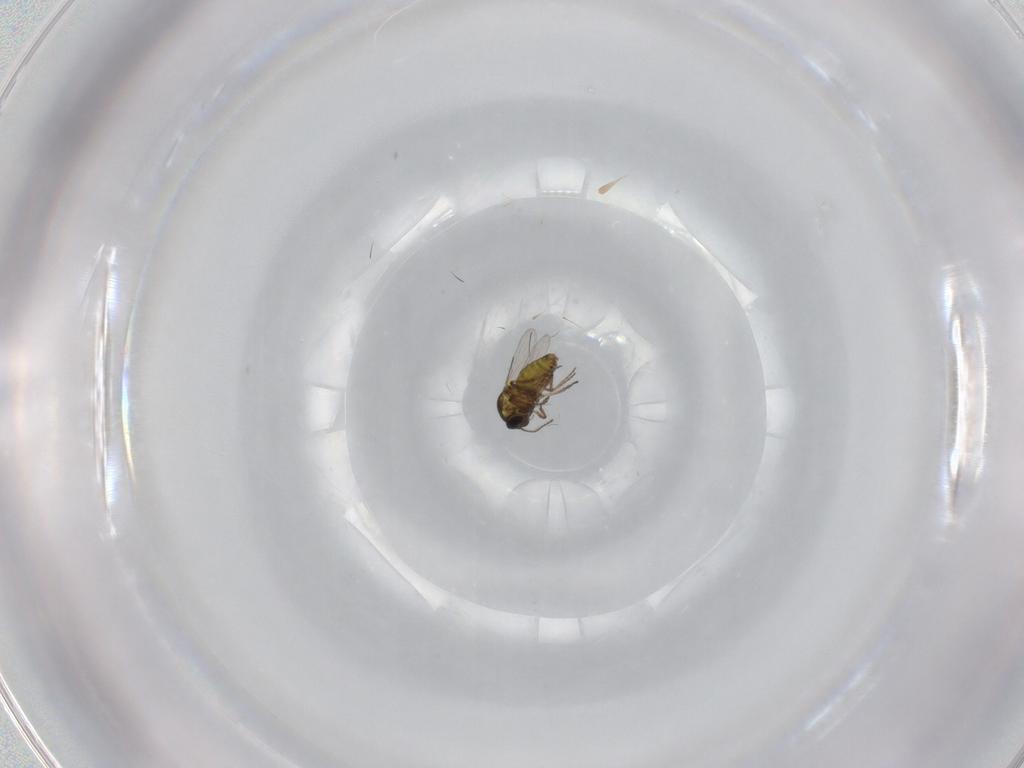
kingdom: Animalia
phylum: Arthropoda
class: Insecta
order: Diptera
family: Ceratopogonidae
